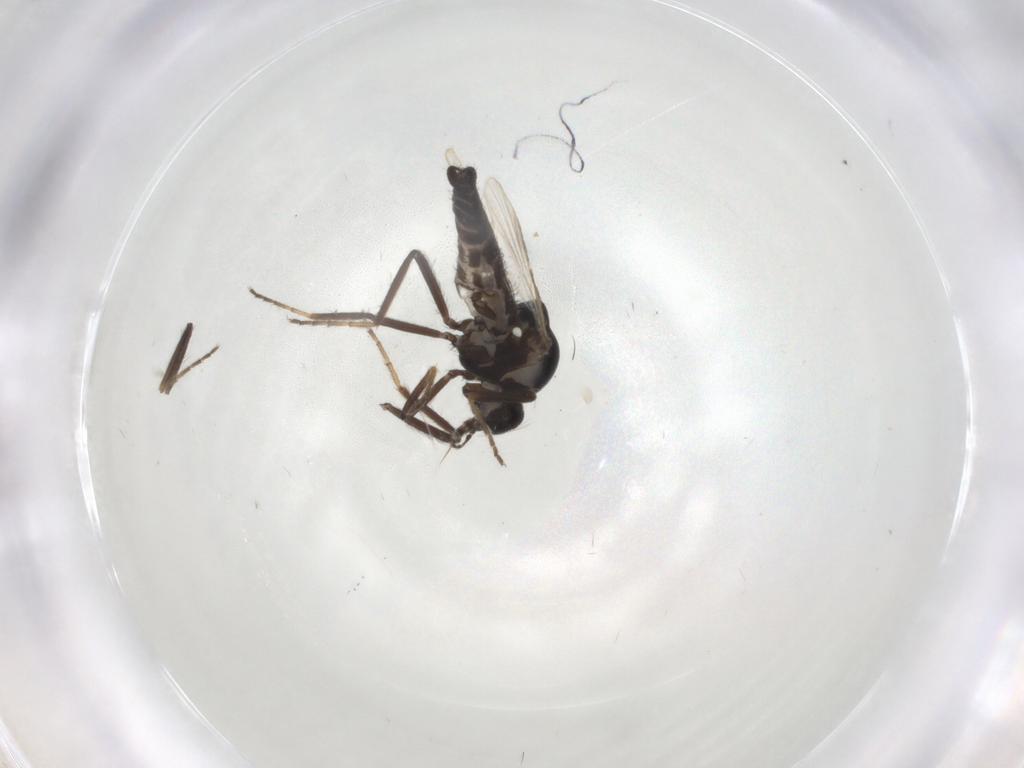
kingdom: Animalia
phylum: Arthropoda
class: Insecta
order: Diptera
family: Ceratopogonidae
